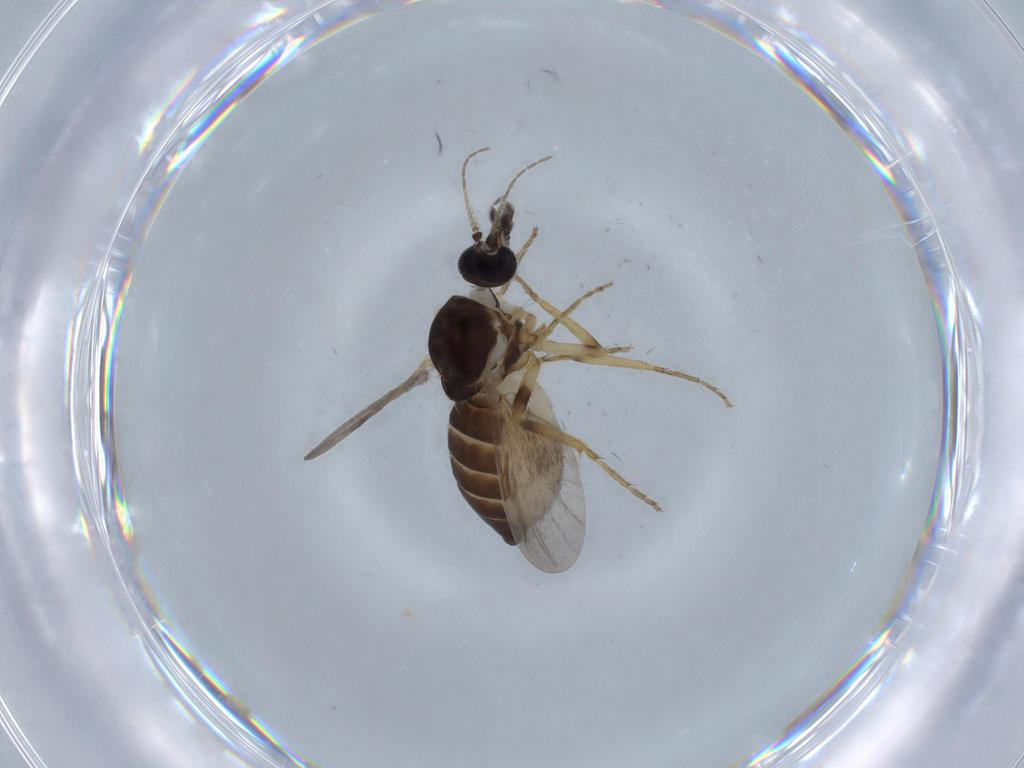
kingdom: Animalia
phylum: Arthropoda
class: Insecta
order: Diptera
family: Ceratopogonidae
